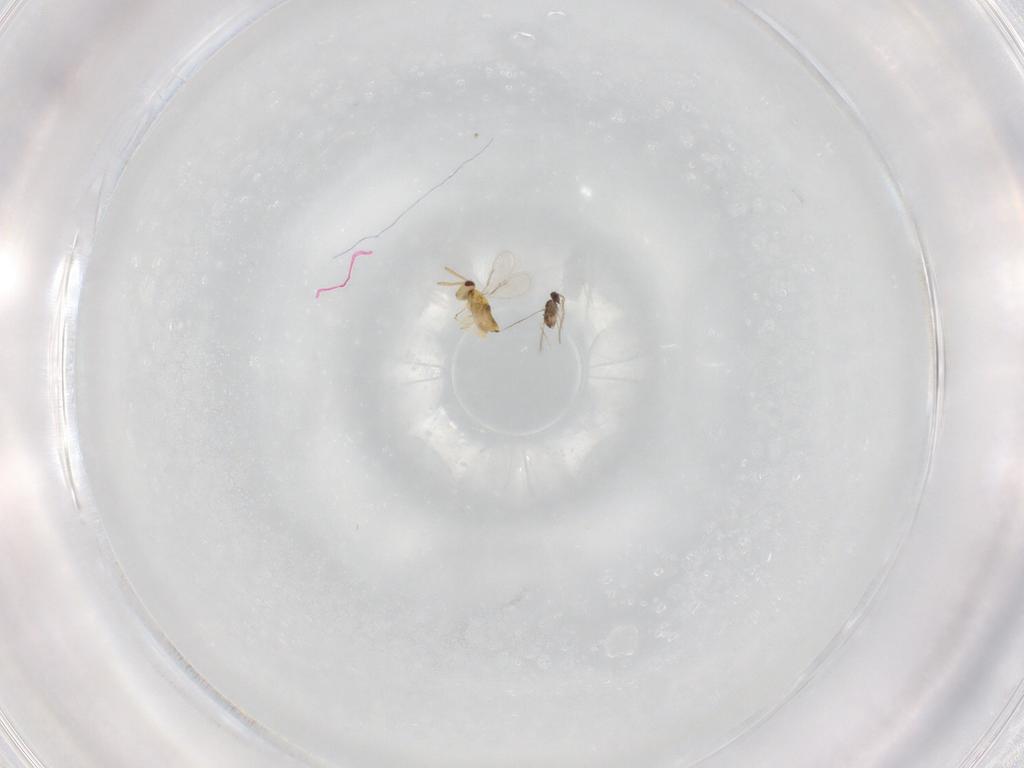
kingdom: Animalia
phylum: Arthropoda
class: Insecta
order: Hymenoptera
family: Aphelinidae
